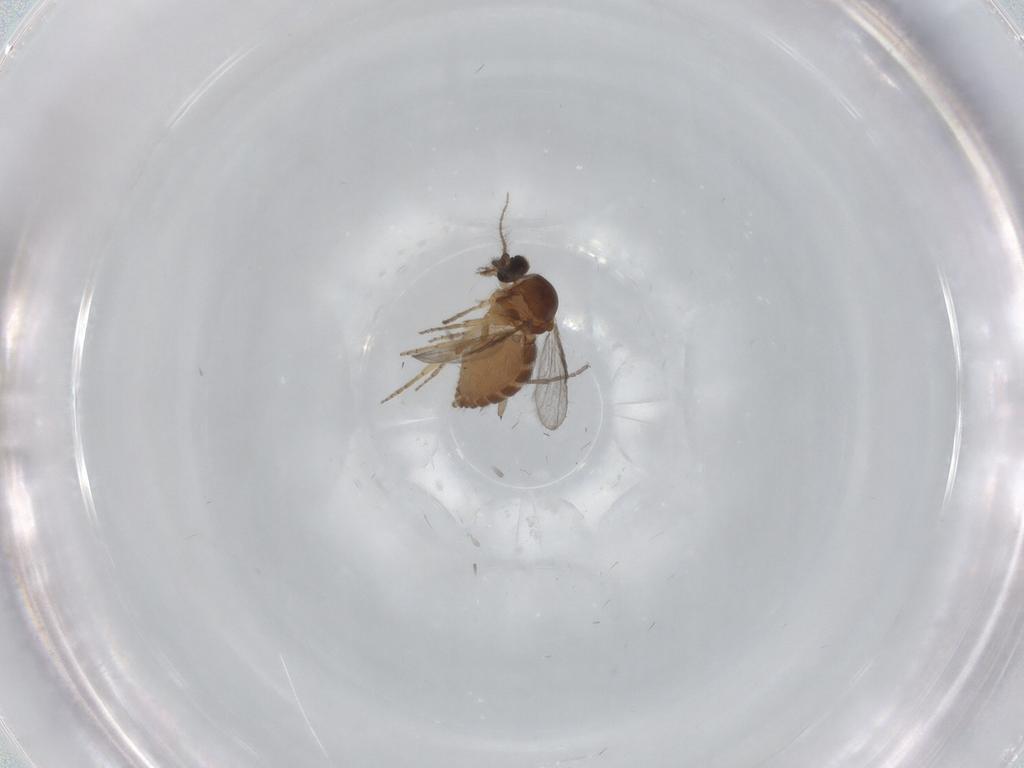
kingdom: Animalia
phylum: Arthropoda
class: Insecta
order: Diptera
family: Ceratopogonidae
